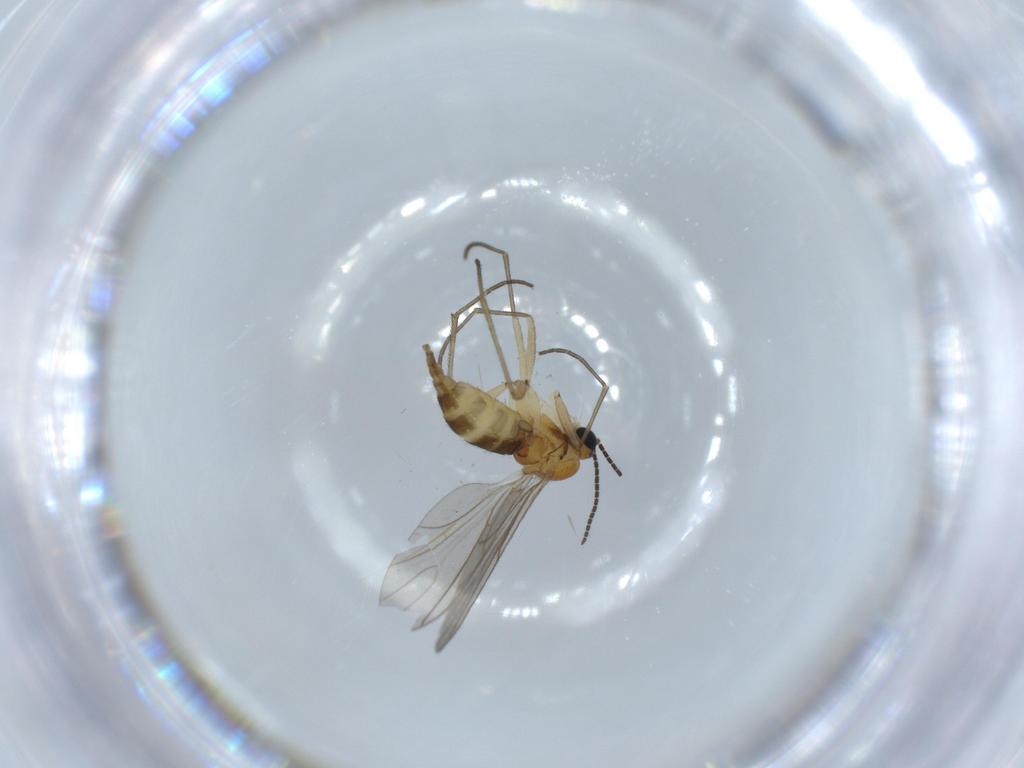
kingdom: Animalia
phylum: Arthropoda
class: Insecta
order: Diptera
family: Sciaridae
